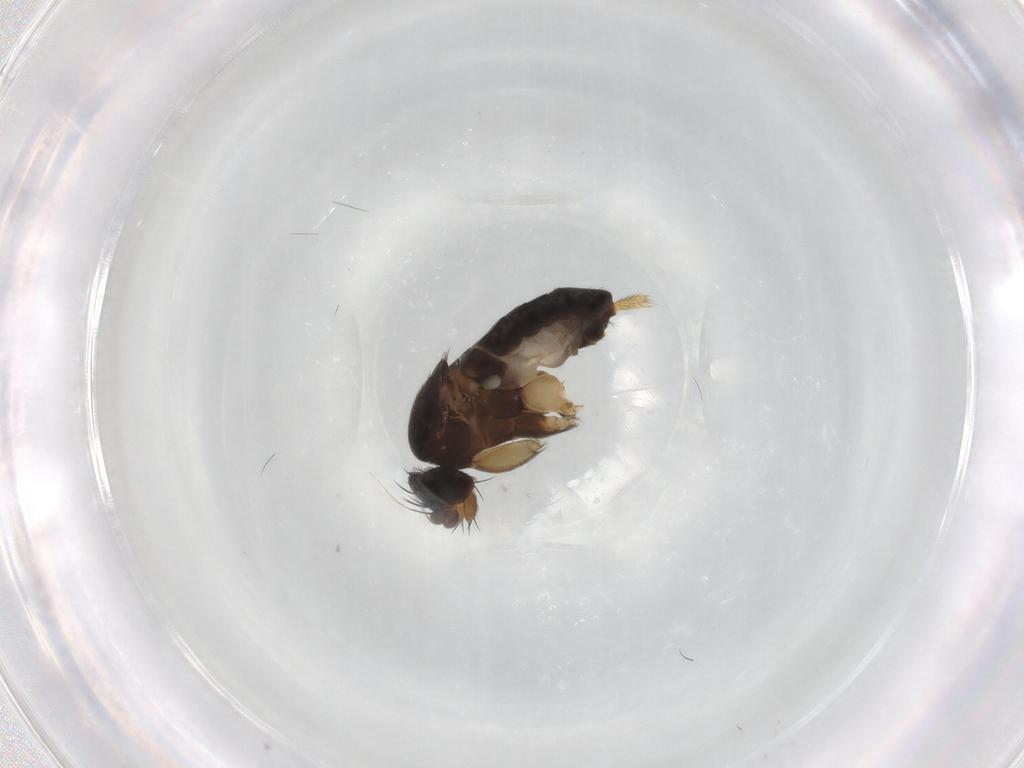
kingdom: Animalia
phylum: Arthropoda
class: Insecta
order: Diptera
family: Sciaridae
